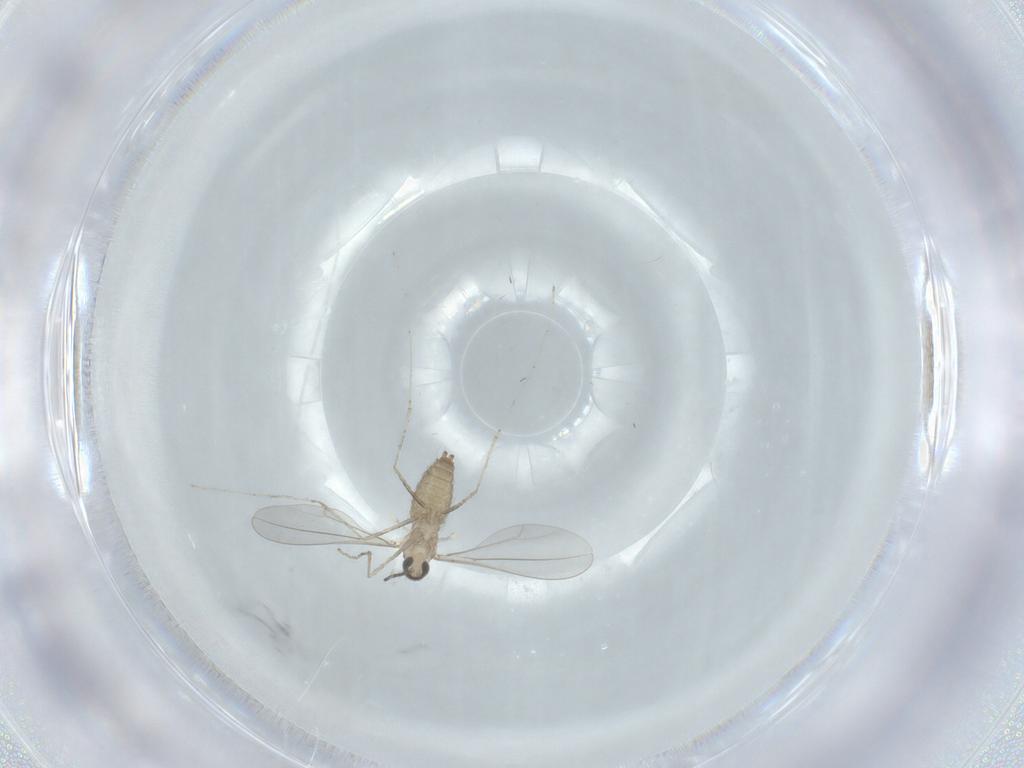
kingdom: Animalia
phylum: Arthropoda
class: Insecta
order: Diptera
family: Cecidomyiidae
